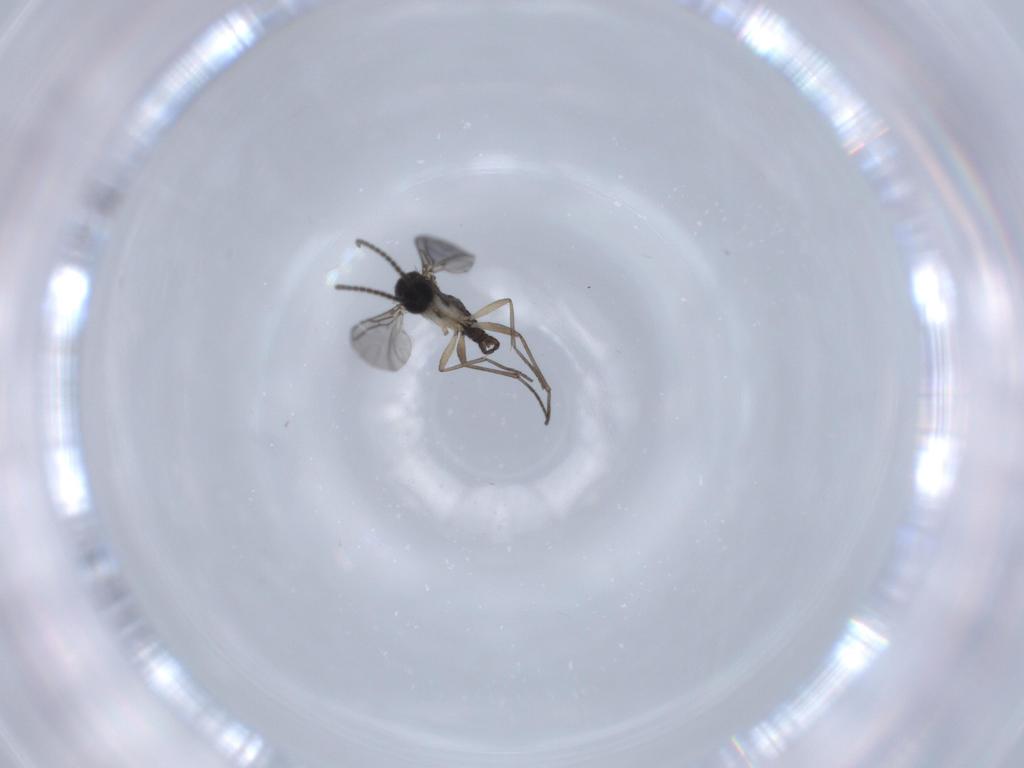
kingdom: Animalia
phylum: Arthropoda
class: Insecta
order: Diptera
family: Sciaridae
